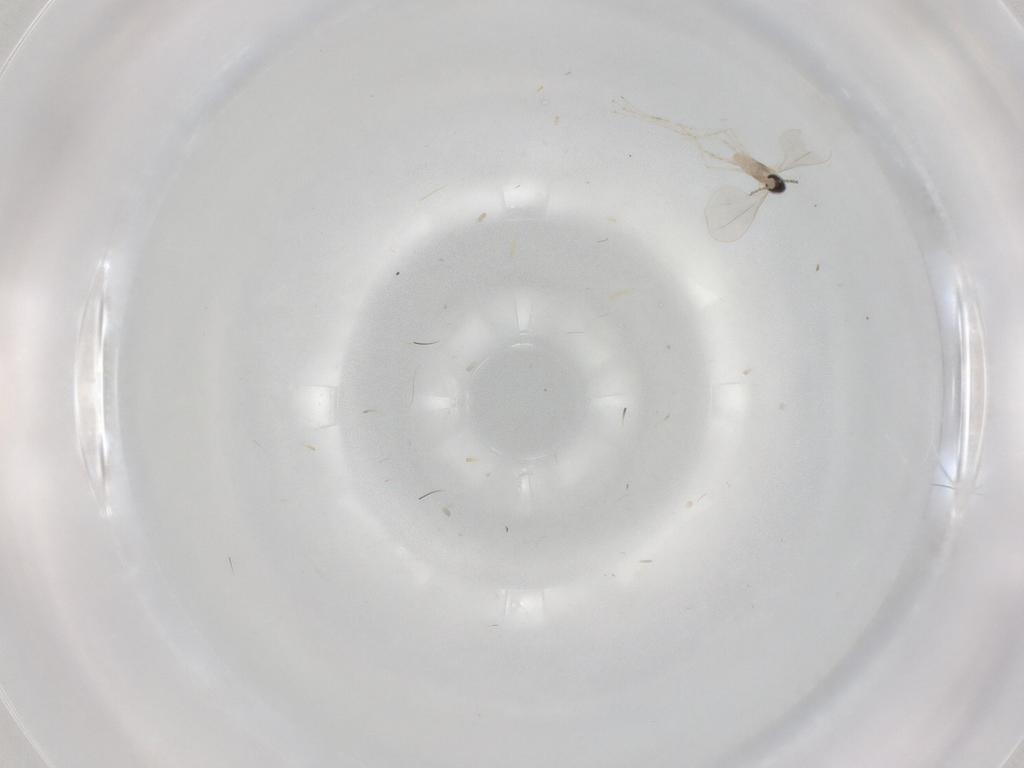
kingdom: Animalia
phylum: Arthropoda
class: Insecta
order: Diptera
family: Cecidomyiidae
